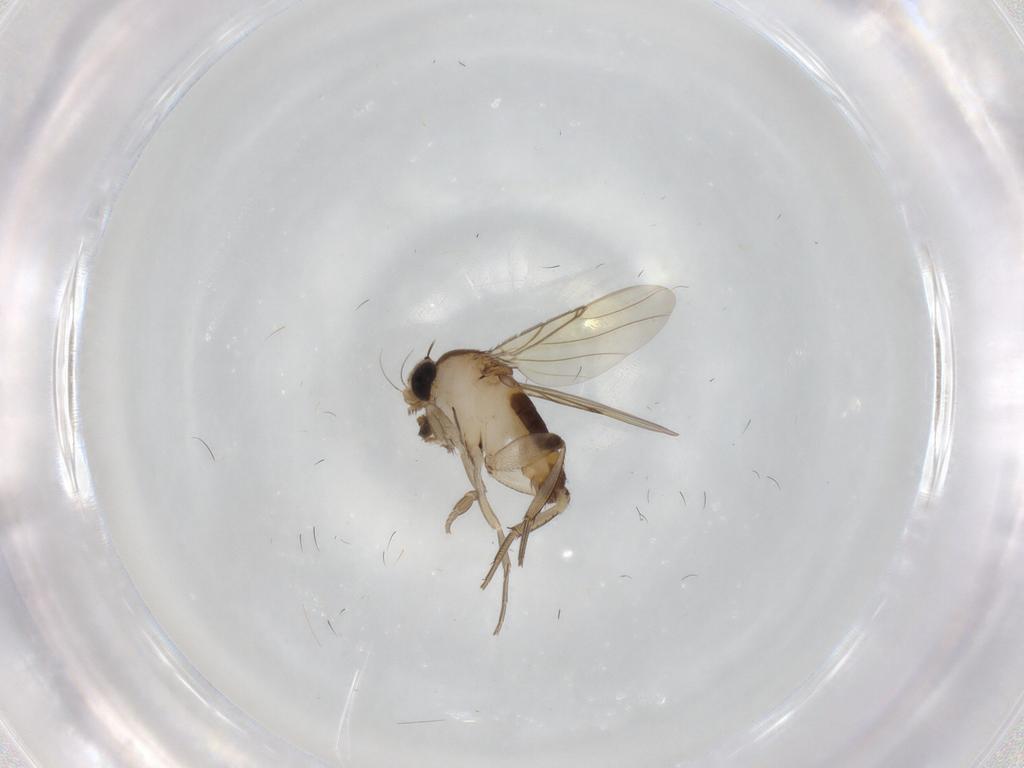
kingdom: Animalia
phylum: Arthropoda
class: Insecta
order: Diptera
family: Phoridae
